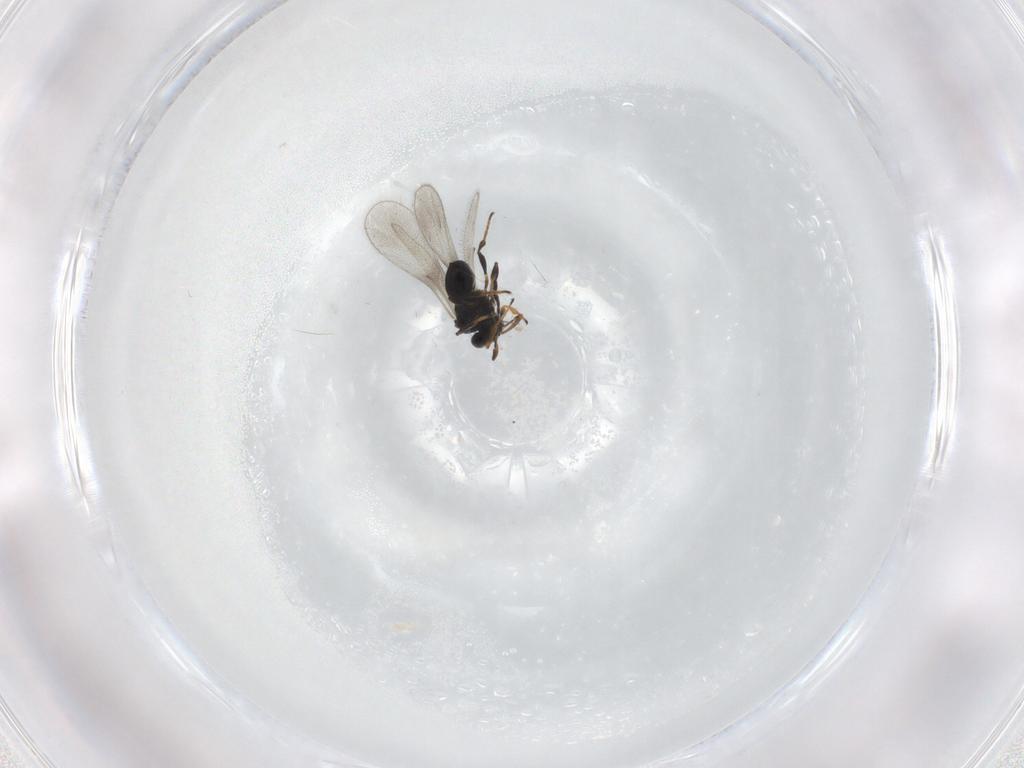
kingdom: Animalia
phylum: Arthropoda
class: Insecta
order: Hymenoptera
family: Platygastridae
